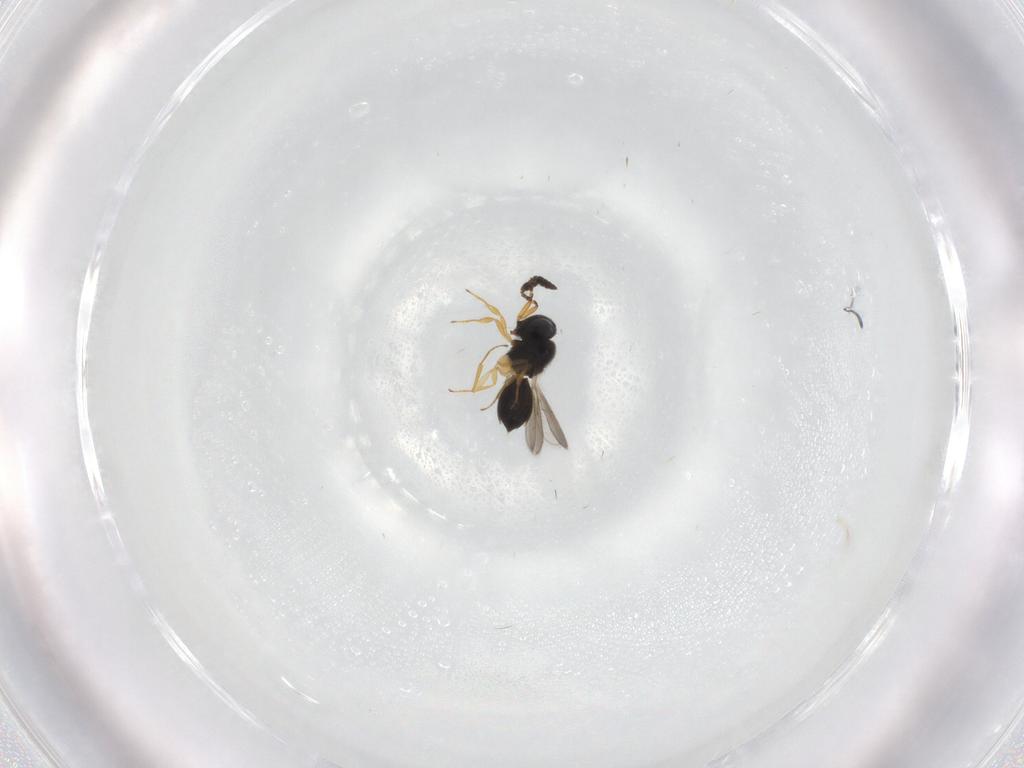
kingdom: Animalia
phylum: Arthropoda
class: Insecta
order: Hymenoptera
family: Scelionidae
